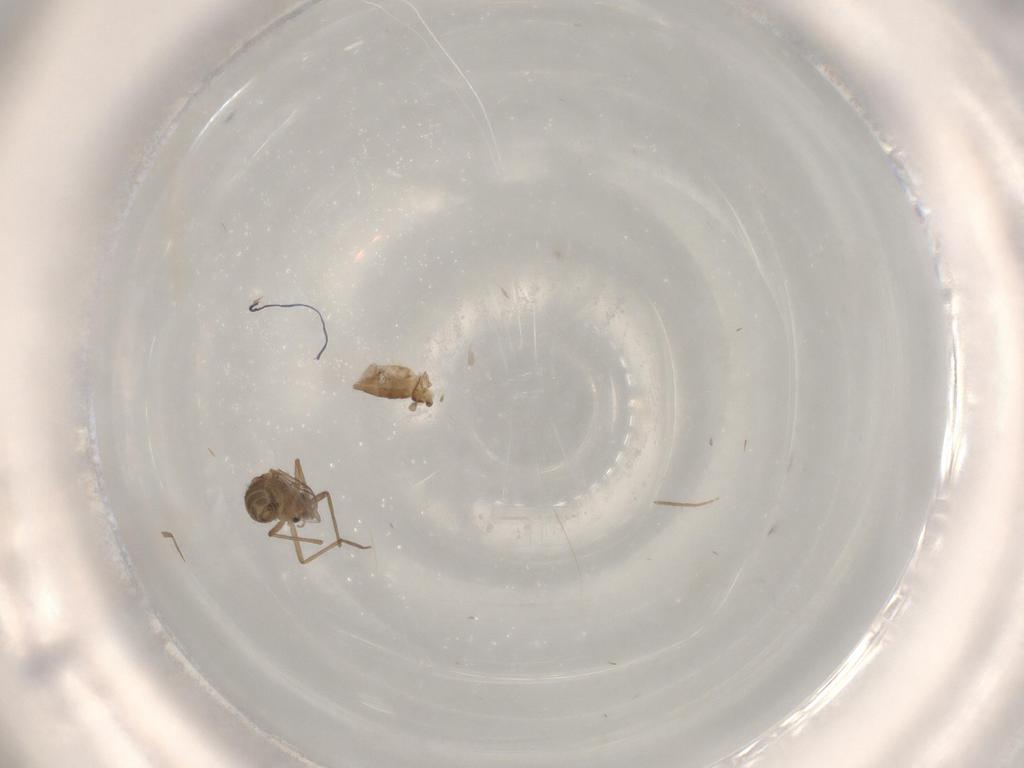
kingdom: Animalia
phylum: Arthropoda
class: Insecta
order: Diptera
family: Chironomidae
